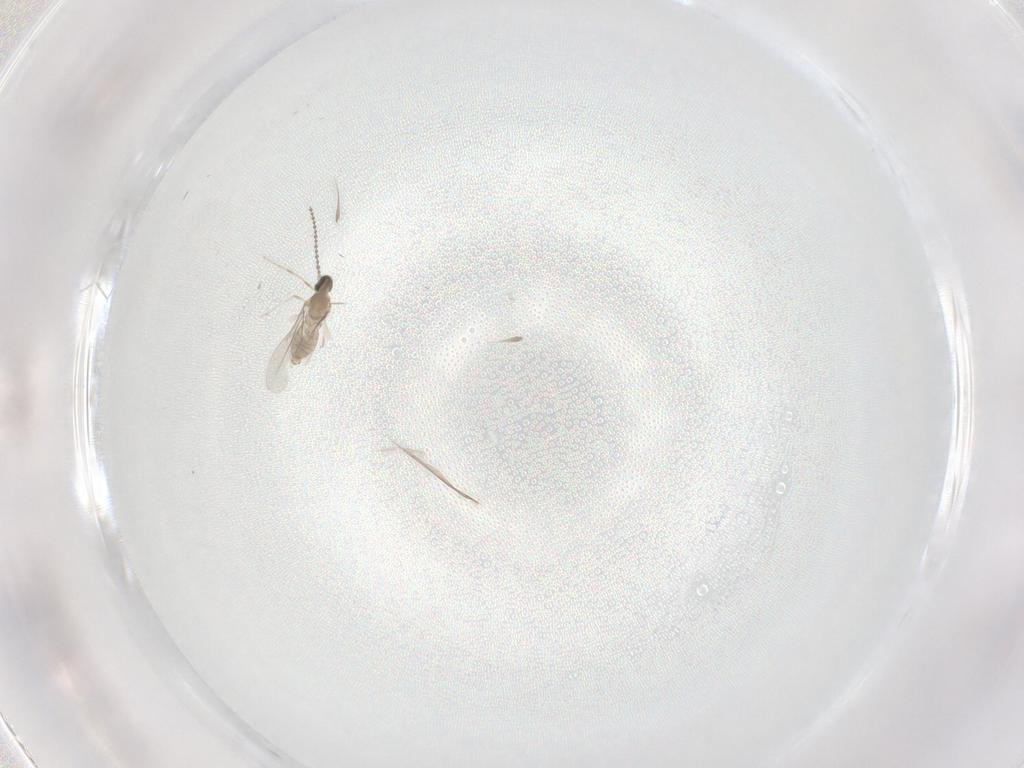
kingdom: Animalia
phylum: Arthropoda
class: Insecta
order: Diptera
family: Cecidomyiidae
